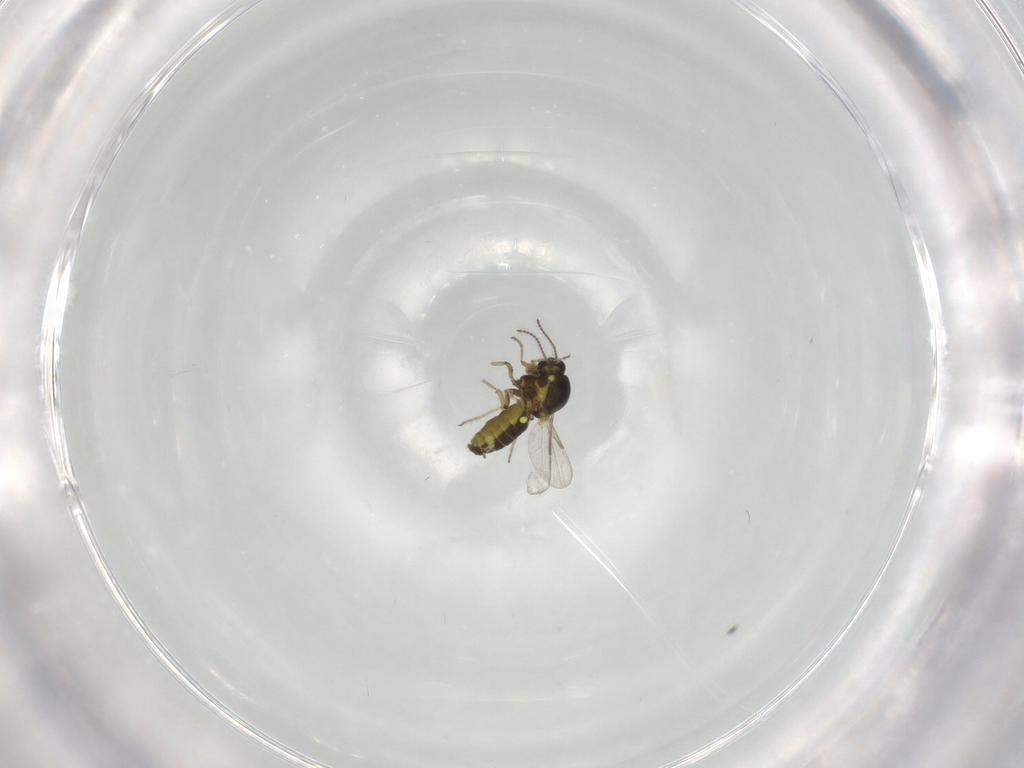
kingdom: Animalia
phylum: Arthropoda
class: Insecta
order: Diptera
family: Ceratopogonidae
